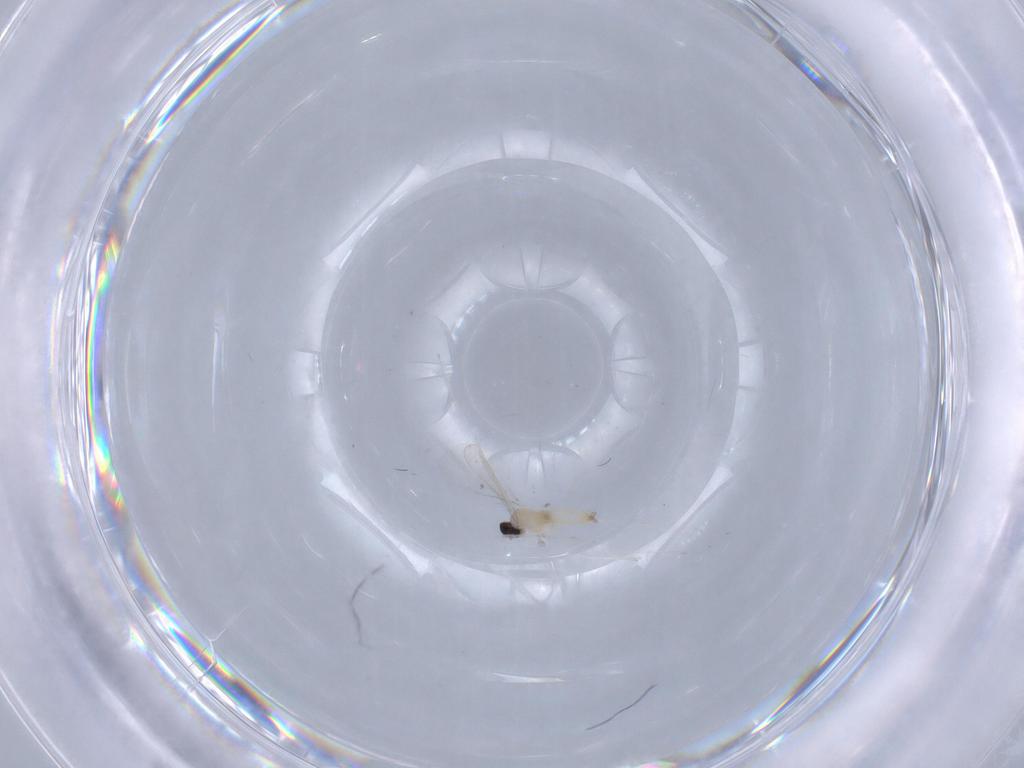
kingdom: Animalia
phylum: Arthropoda
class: Insecta
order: Diptera
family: Cecidomyiidae
